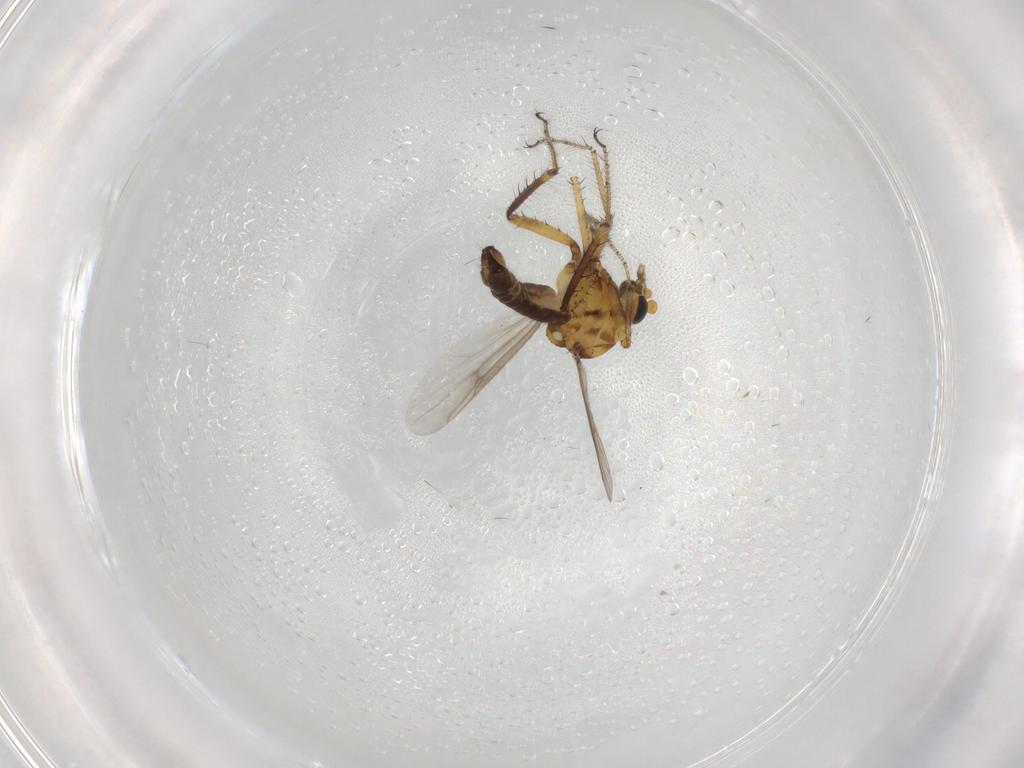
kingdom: Animalia
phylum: Arthropoda
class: Insecta
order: Diptera
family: Ceratopogonidae
